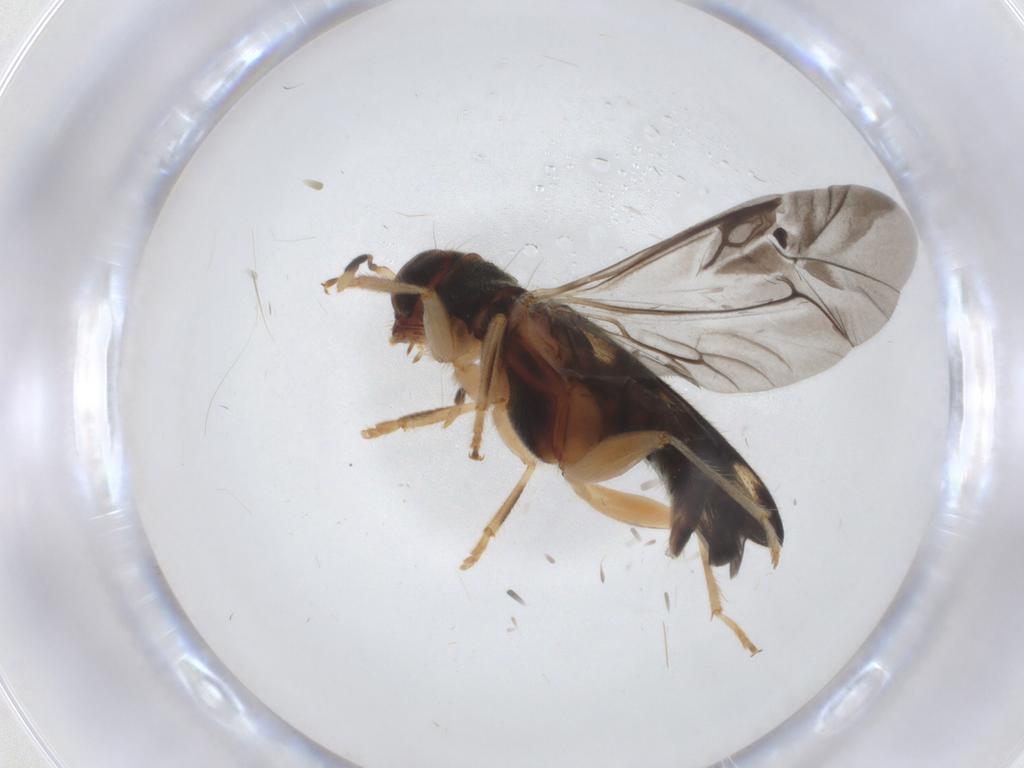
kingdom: Animalia
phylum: Arthropoda
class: Insecta
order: Coleoptera
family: Cleridae
